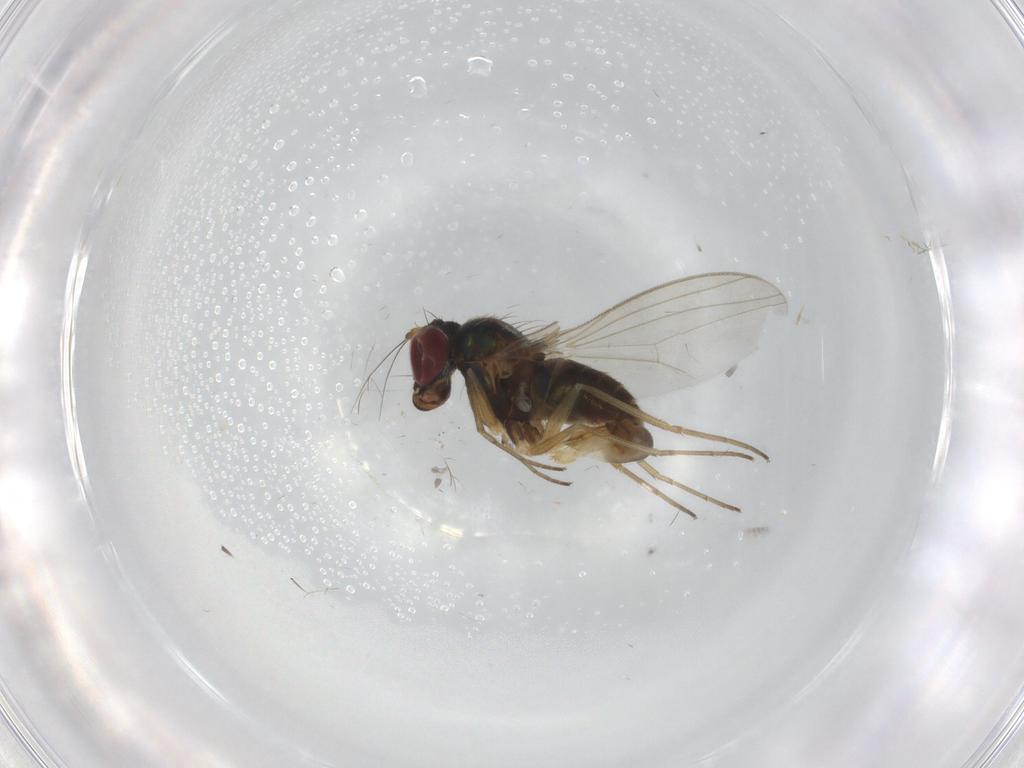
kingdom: Animalia
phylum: Arthropoda
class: Insecta
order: Diptera
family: Dolichopodidae
